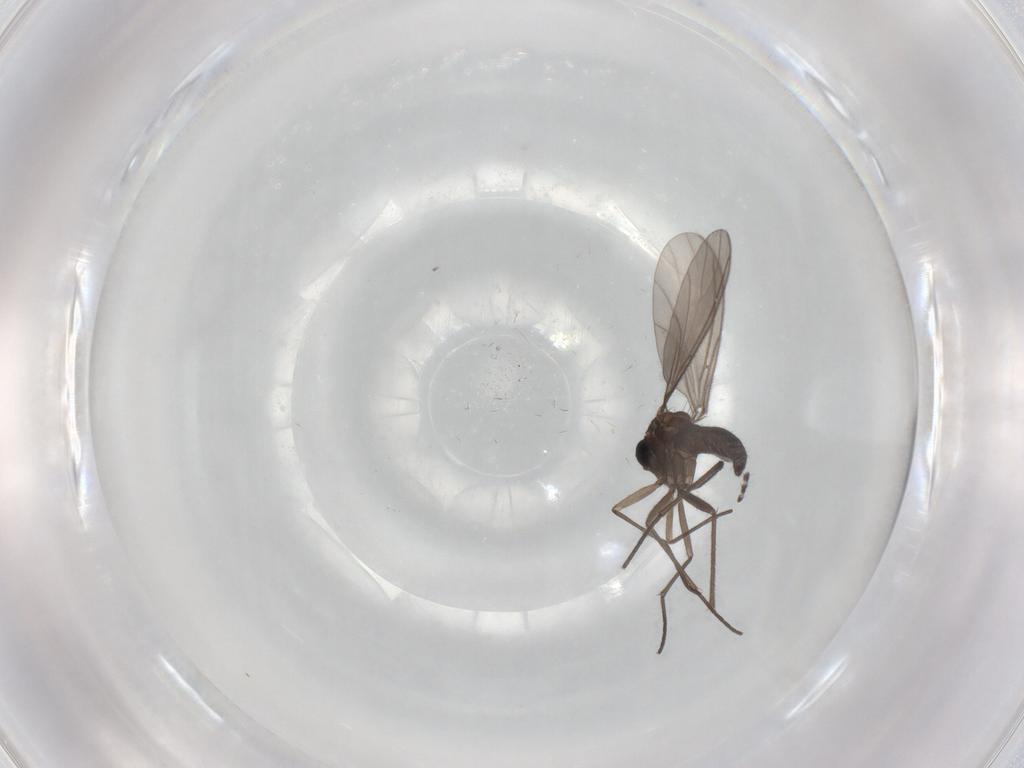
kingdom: Animalia
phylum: Arthropoda
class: Insecta
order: Diptera
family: Sciaridae
